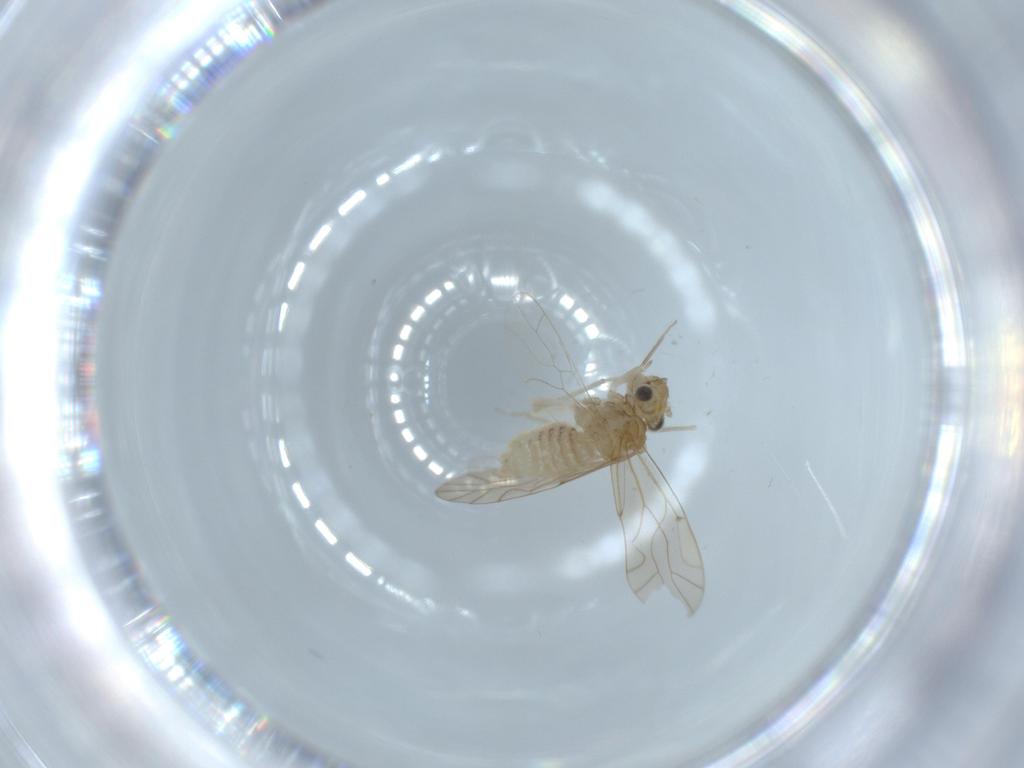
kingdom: Animalia
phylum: Arthropoda
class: Insecta
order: Psocodea
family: Lachesillidae
